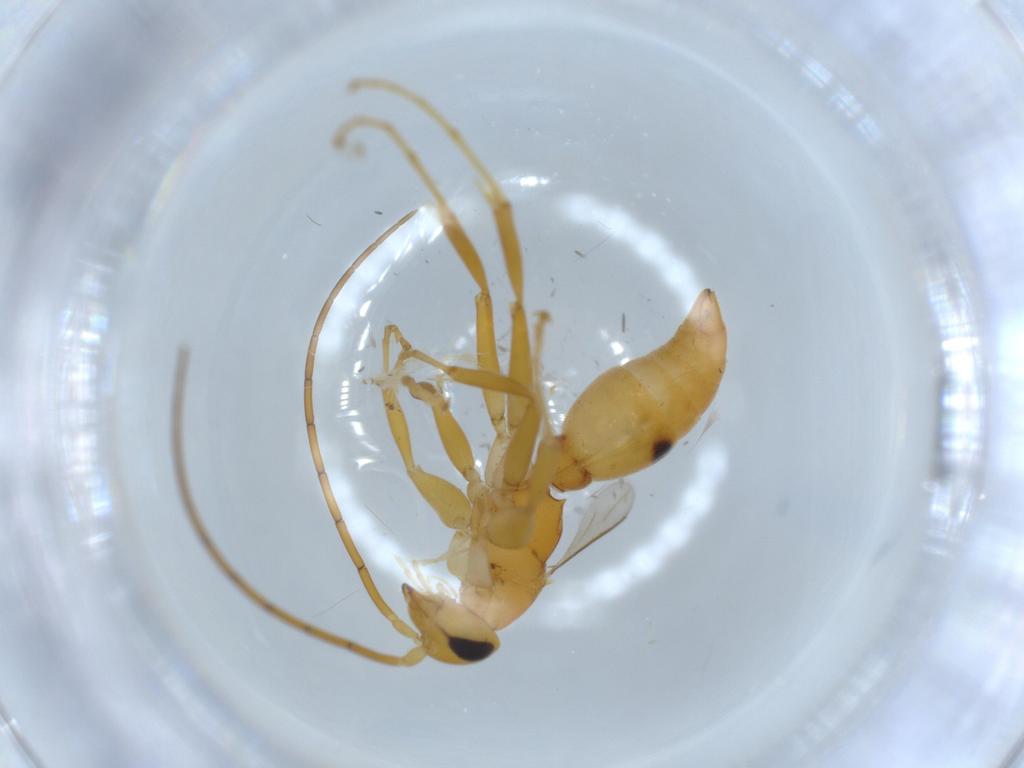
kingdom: Animalia
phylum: Arthropoda
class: Insecta
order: Hymenoptera
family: Rhopalosomatidae
